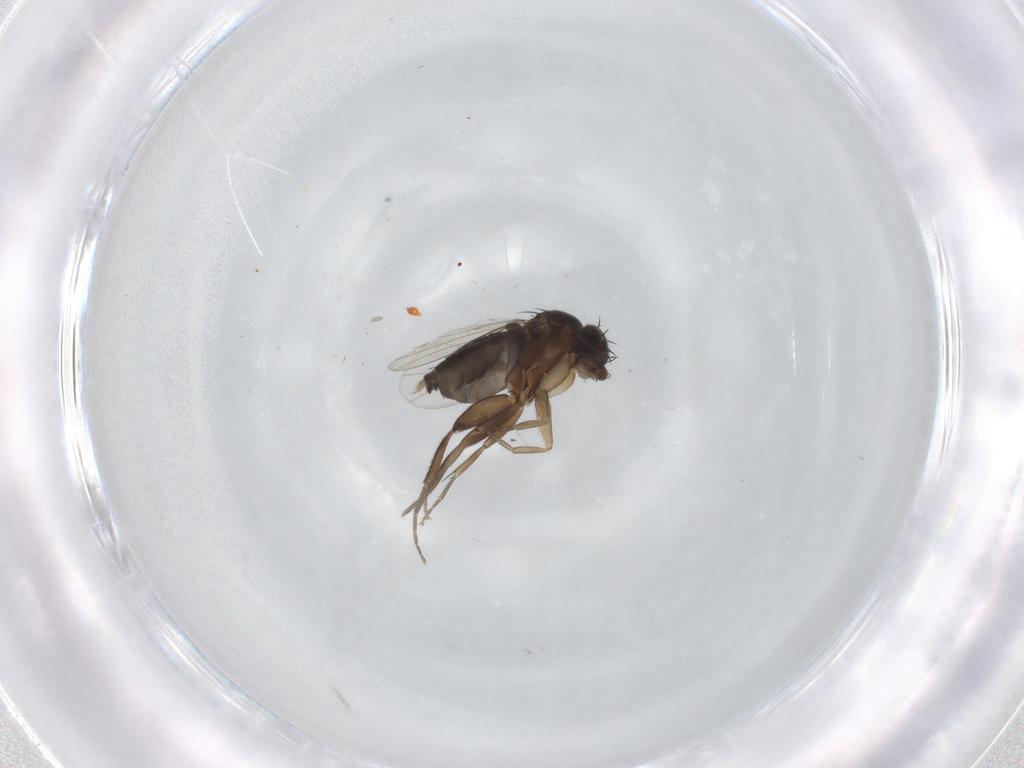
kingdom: Animalia
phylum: Arthropoda
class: Insecta
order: Diptera
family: Phoridae
